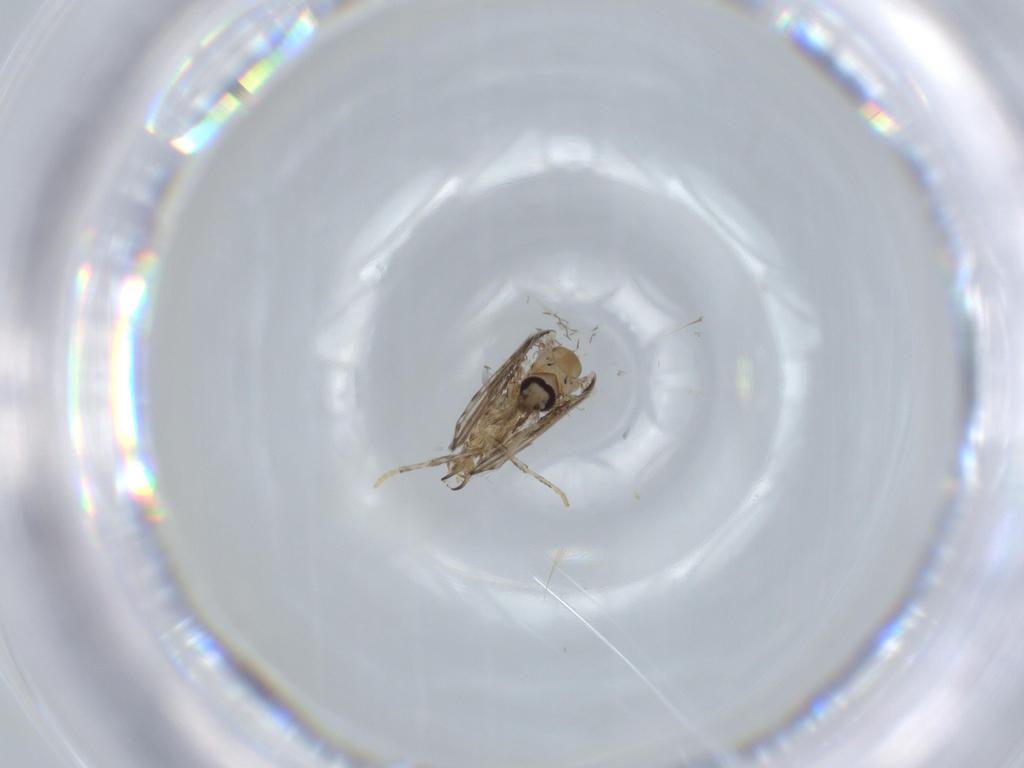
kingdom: Animalia
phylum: Arthropoda
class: Insecta
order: Diptera
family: Psychodidae
